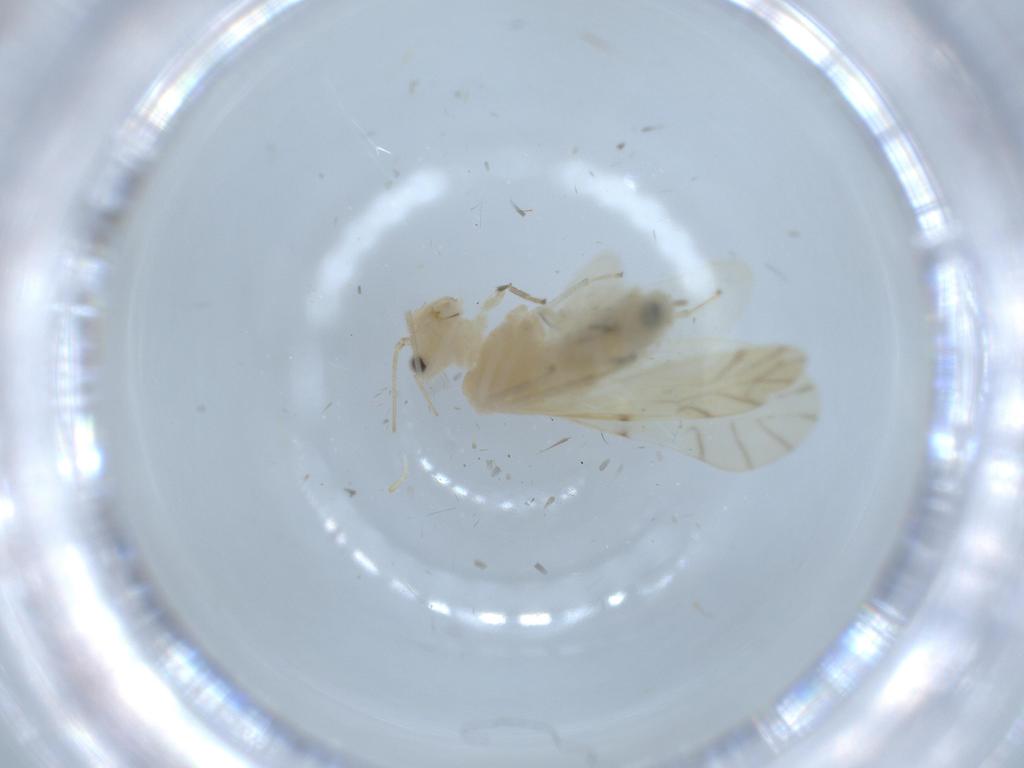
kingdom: Animalia
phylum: Arthropoda
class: Insecta
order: Psocodea
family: Caeciliusidae
